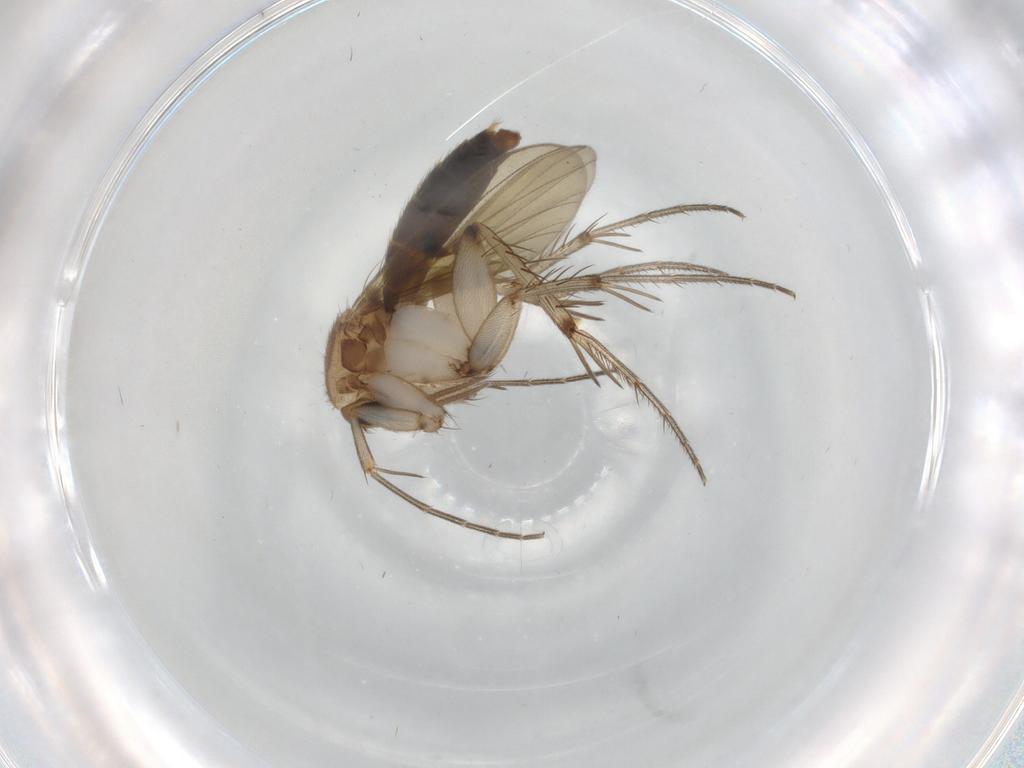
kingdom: Animalia
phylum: Arthropoda
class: Insecta
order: Diptera
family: Mycetophilidae
